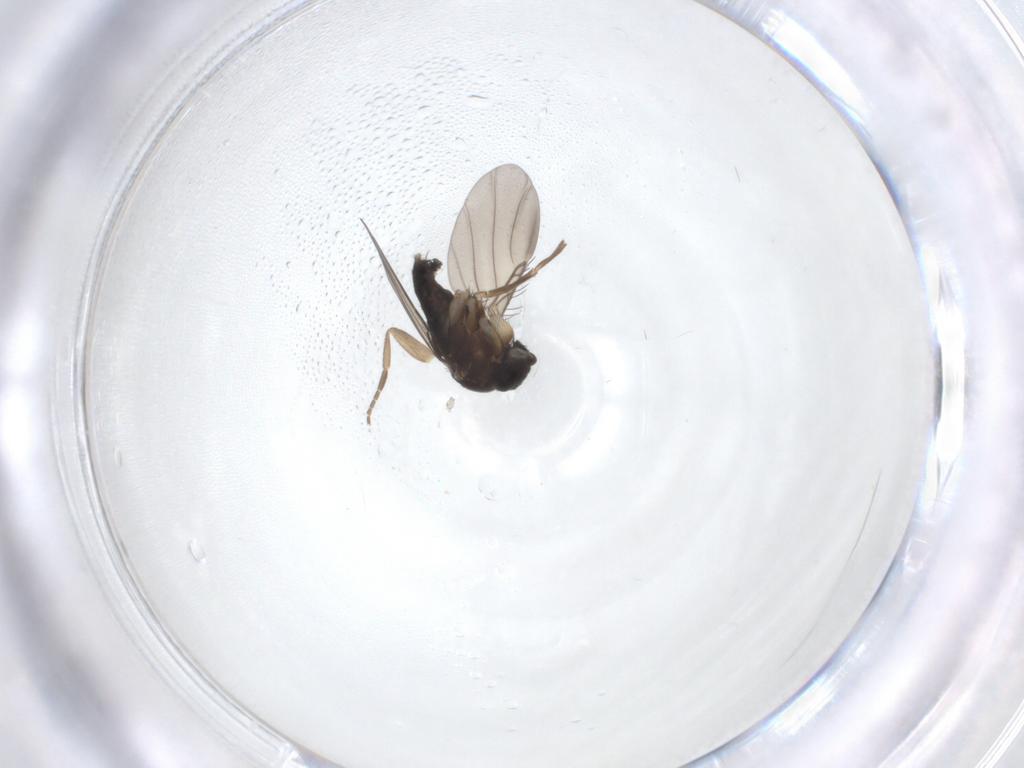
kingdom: Animalia
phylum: Arthropoda
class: Insecta
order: Diptera
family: Phoridae
